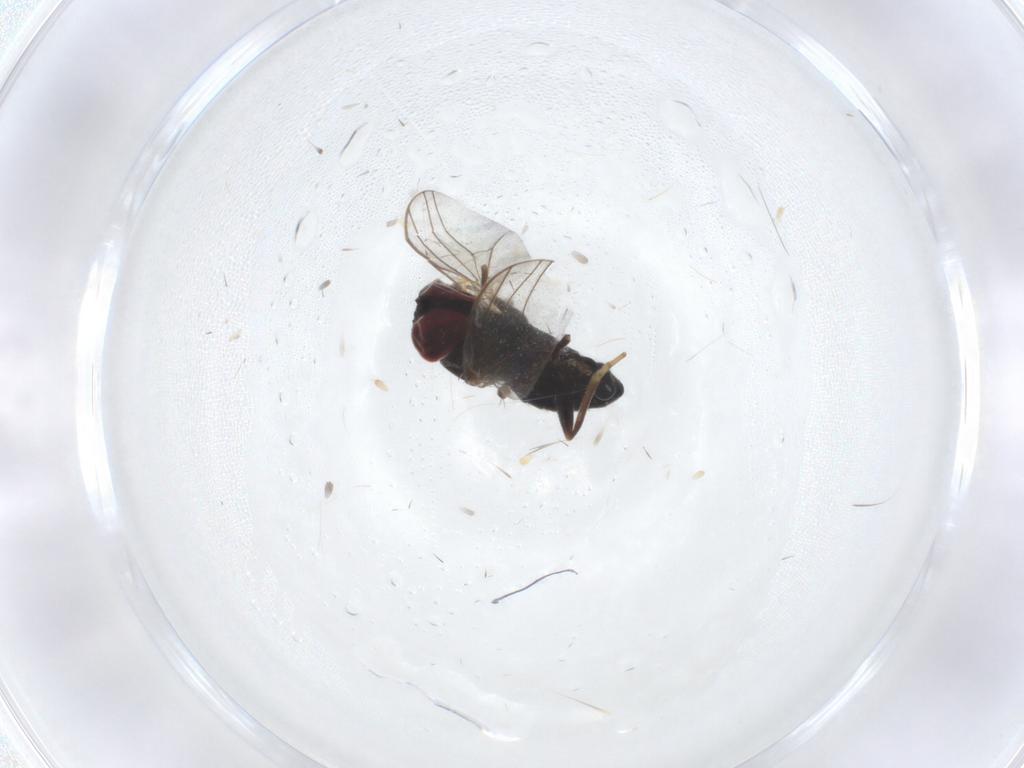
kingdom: Animalia
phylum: Arthropoda
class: Insecta
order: Diptera
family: Dolichopodidae
